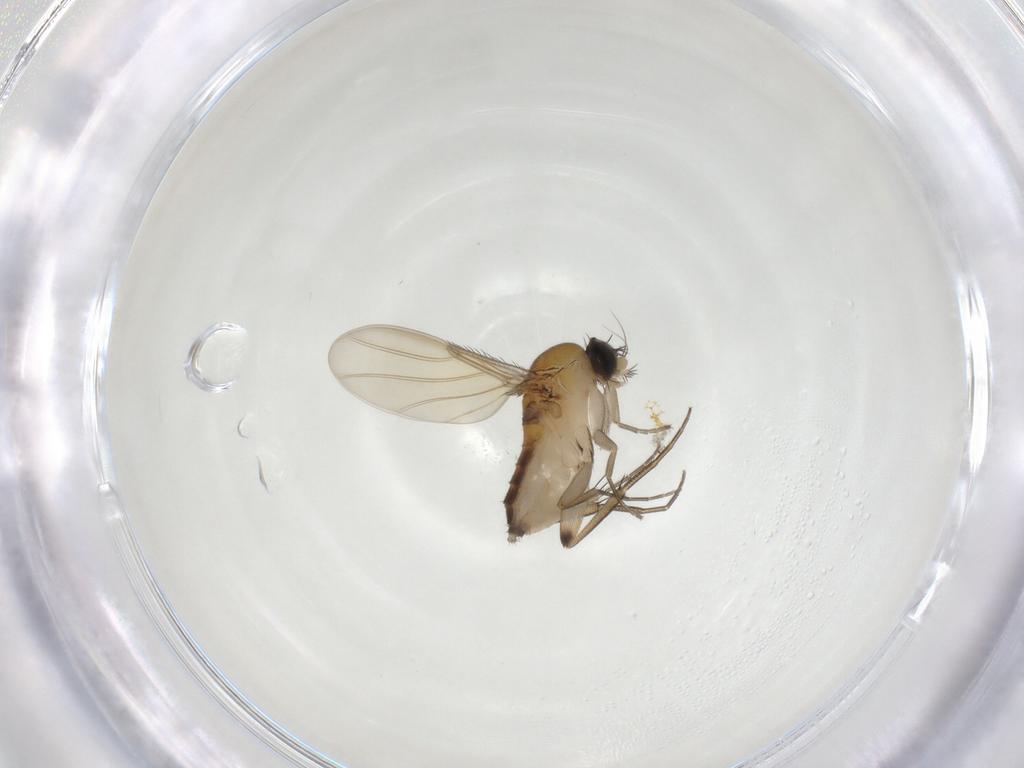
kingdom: Animalia
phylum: Arthropoda
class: Insecta
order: Diptera
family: Phoridae
